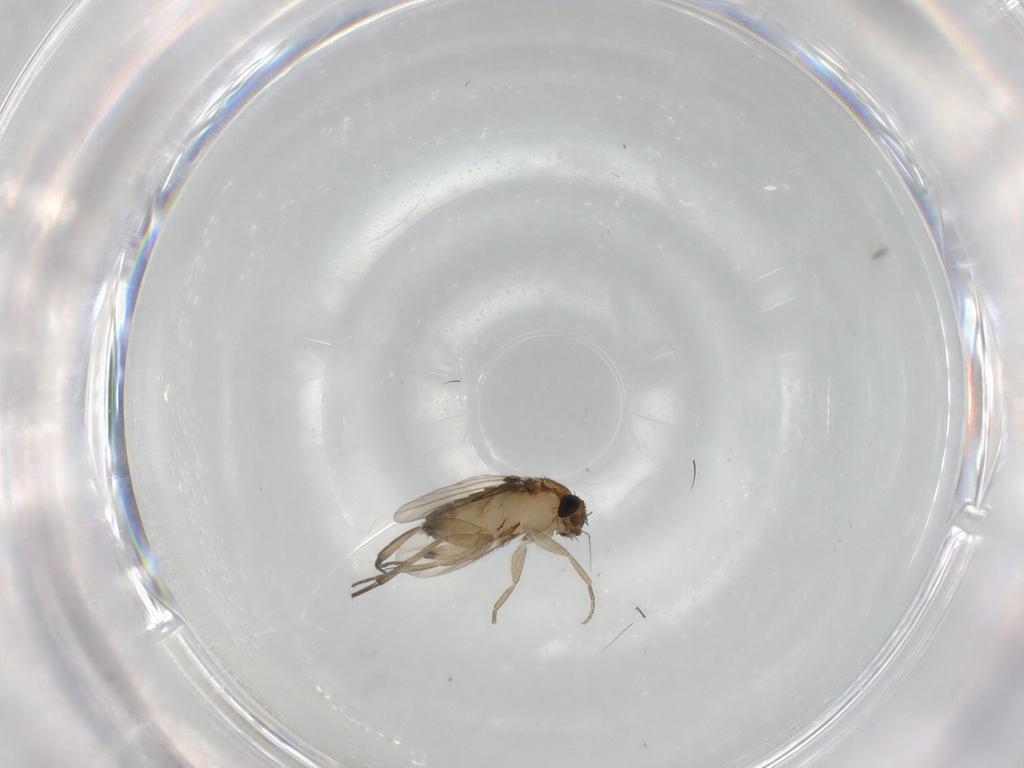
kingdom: Animalia
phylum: Arthropoda
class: Insecta
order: Diptera
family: Phoridae
